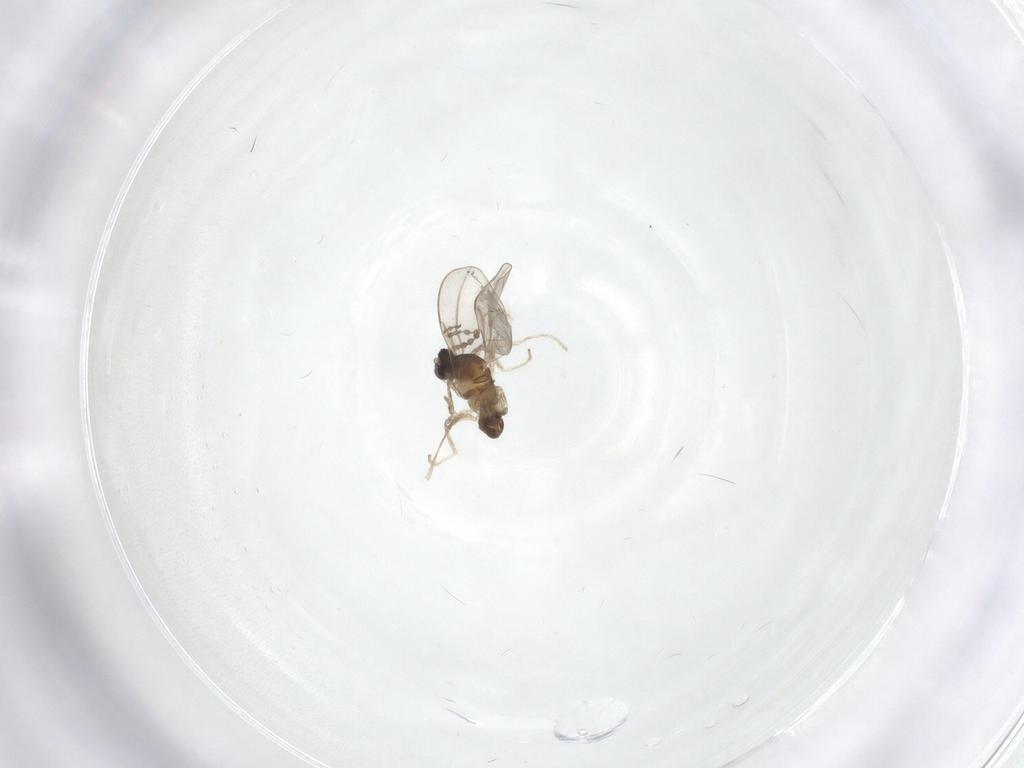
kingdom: Animalia
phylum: Arthropoda
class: Insecta
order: Diptera
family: Cecidomyiidae
